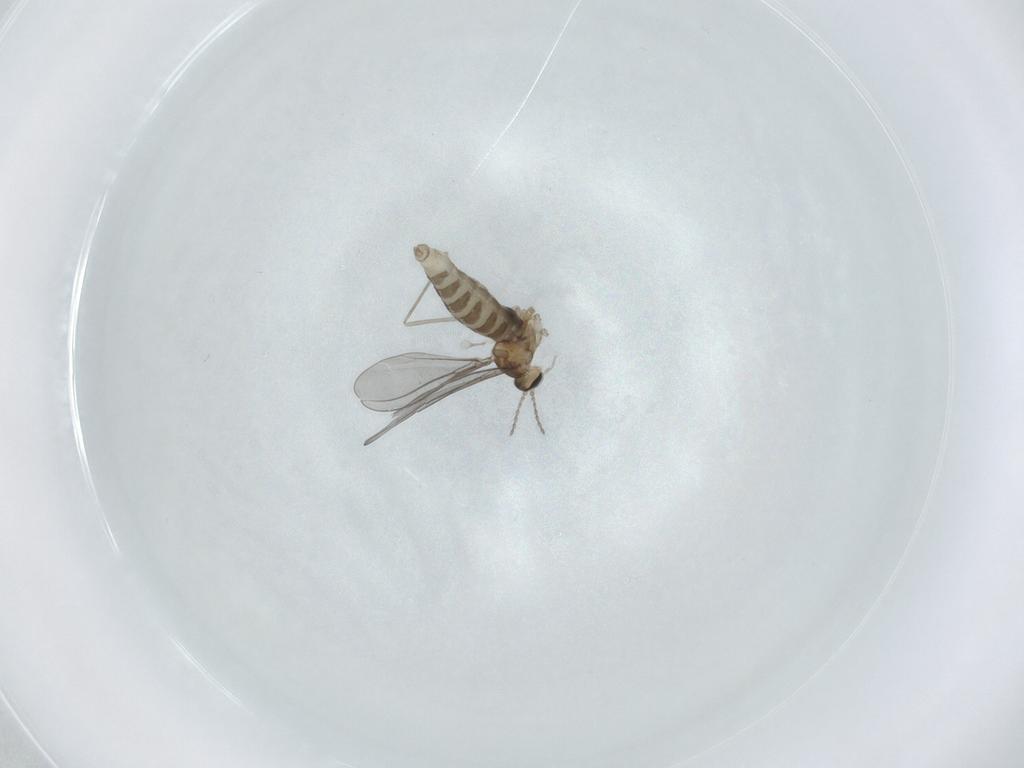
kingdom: Animalia
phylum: Arthropoda
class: Insecta
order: Diptera
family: Cecidomyiidae
